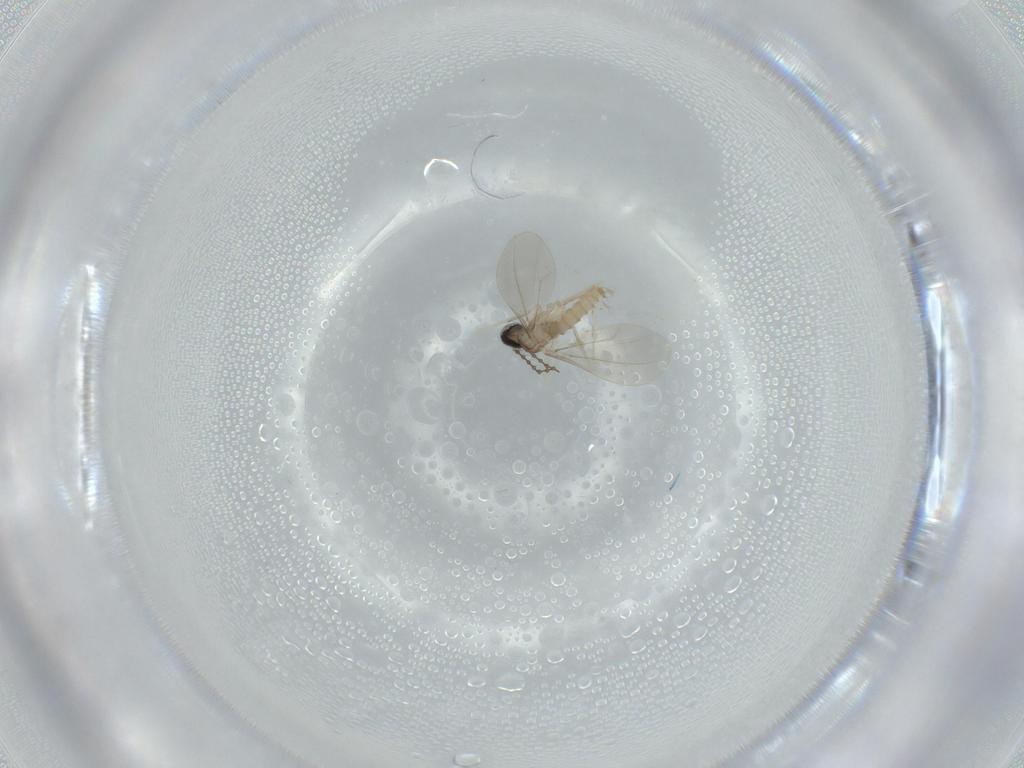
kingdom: Animalia
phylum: Arthropoda
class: Insecta
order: Diptera
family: Cecidomyiidae
